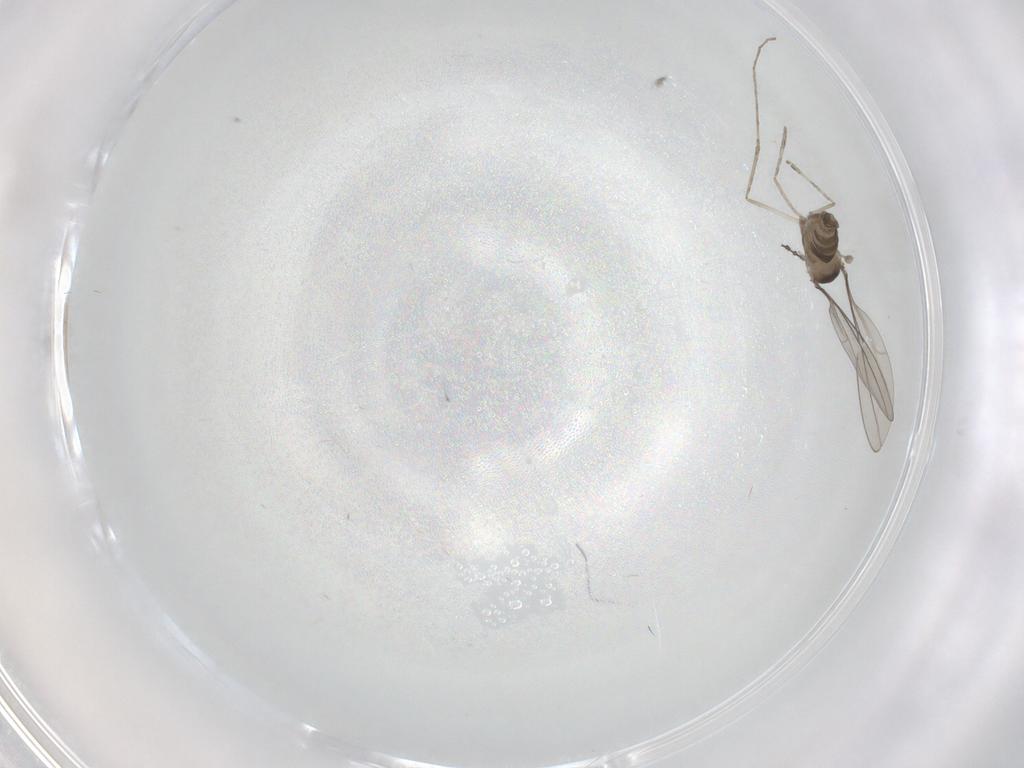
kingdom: Animalia
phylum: Arthropoda
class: Insecta
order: Diptera
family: Cecidomyiidae
